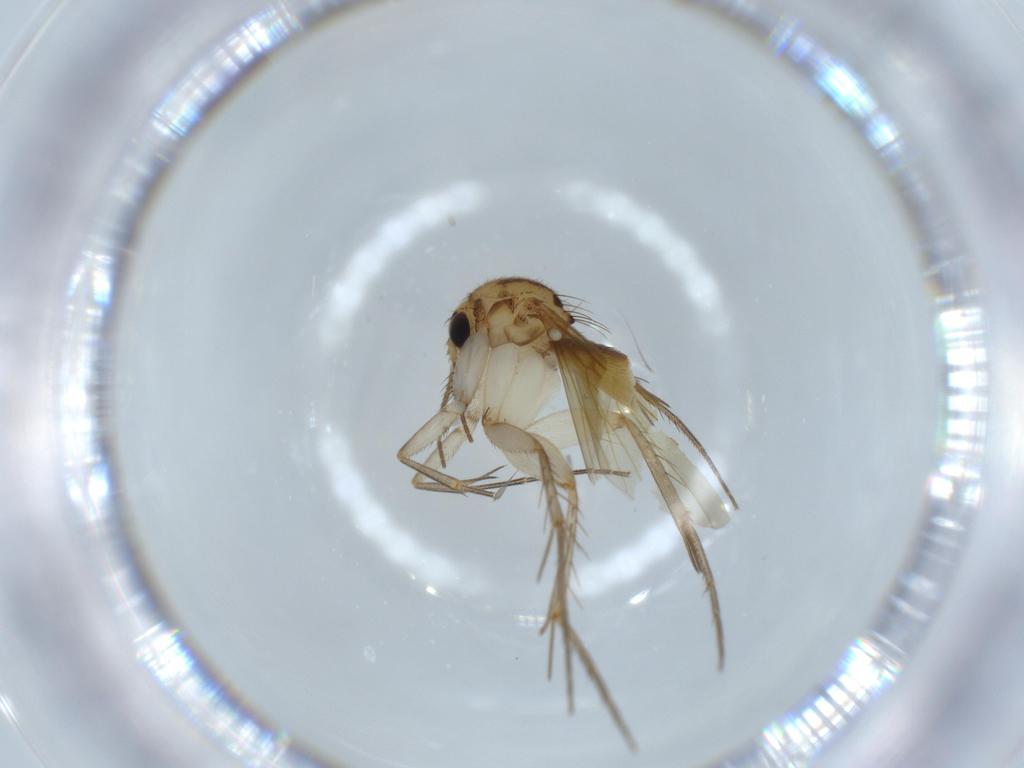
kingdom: Animalia
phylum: Arthropoda
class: Insecta
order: Diptera
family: Mycetophilidae
